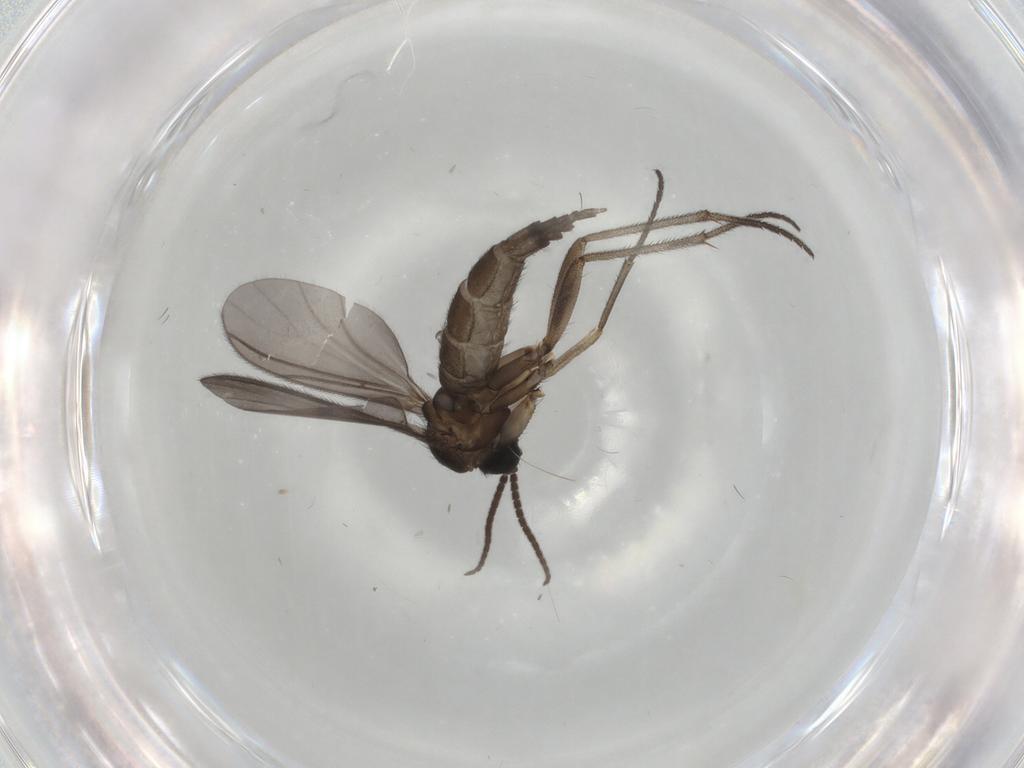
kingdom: Animalia
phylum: Arthropoda
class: Insecta
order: Diptera
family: Sciaridae
